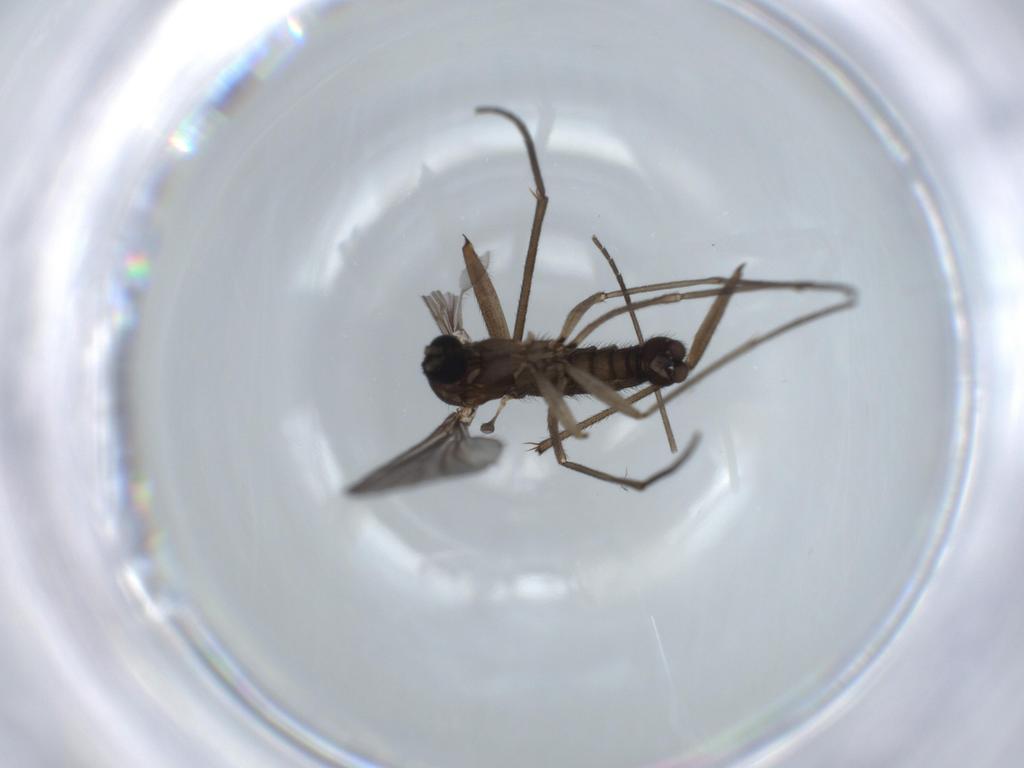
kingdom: Animalia
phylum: Arthropoda
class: Insecta
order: Diptera
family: Sciaridae
